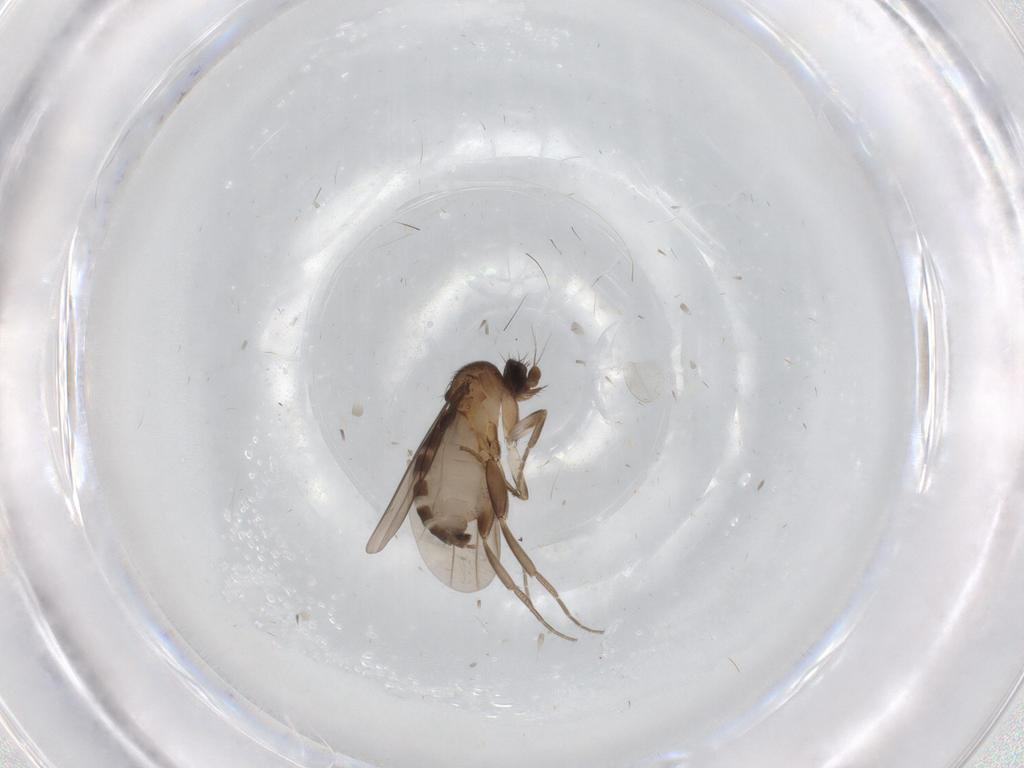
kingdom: Animalia
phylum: Arthropoda
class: Insecta
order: Diptera
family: Cecidomyiidae
